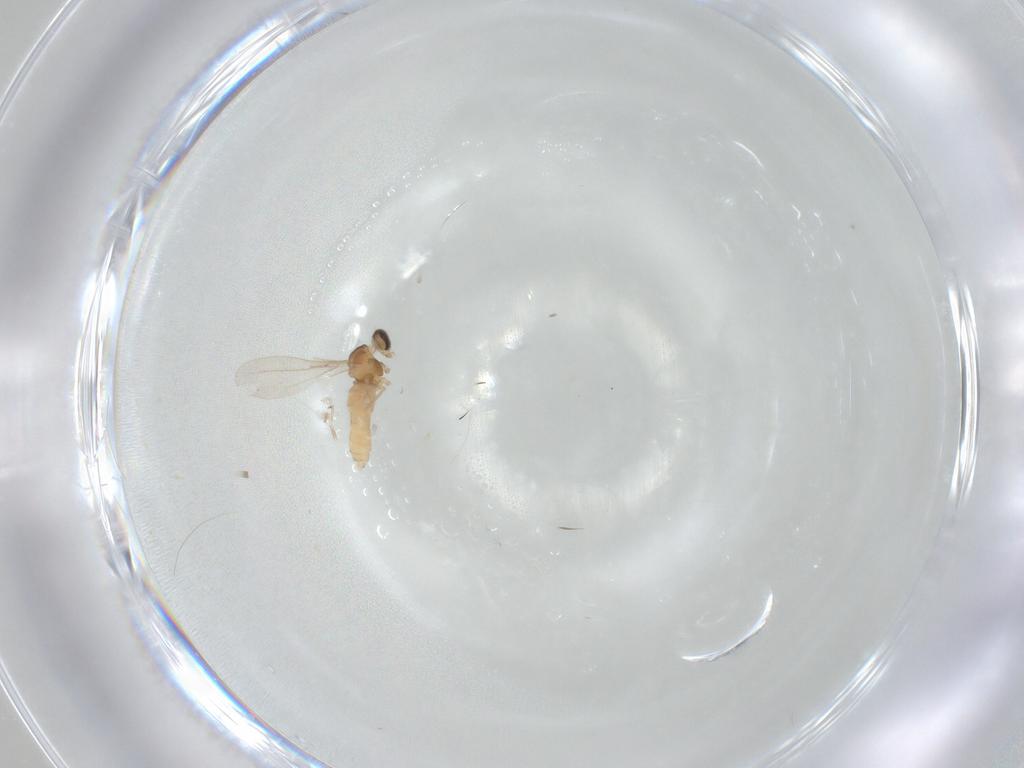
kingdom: Animalia
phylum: Arthropoda
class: Insecta
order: Diptera
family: Cecidomyiidae
